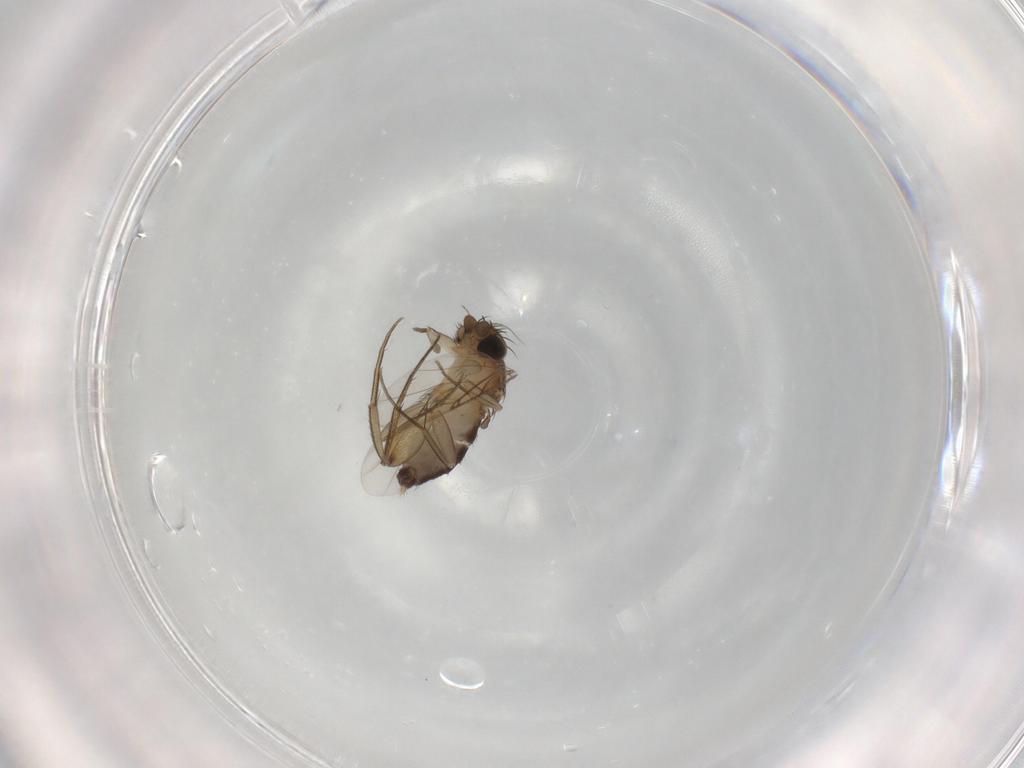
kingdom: Animalia
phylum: Arthropoda
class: Insecta
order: Diptera
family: Phoridae
